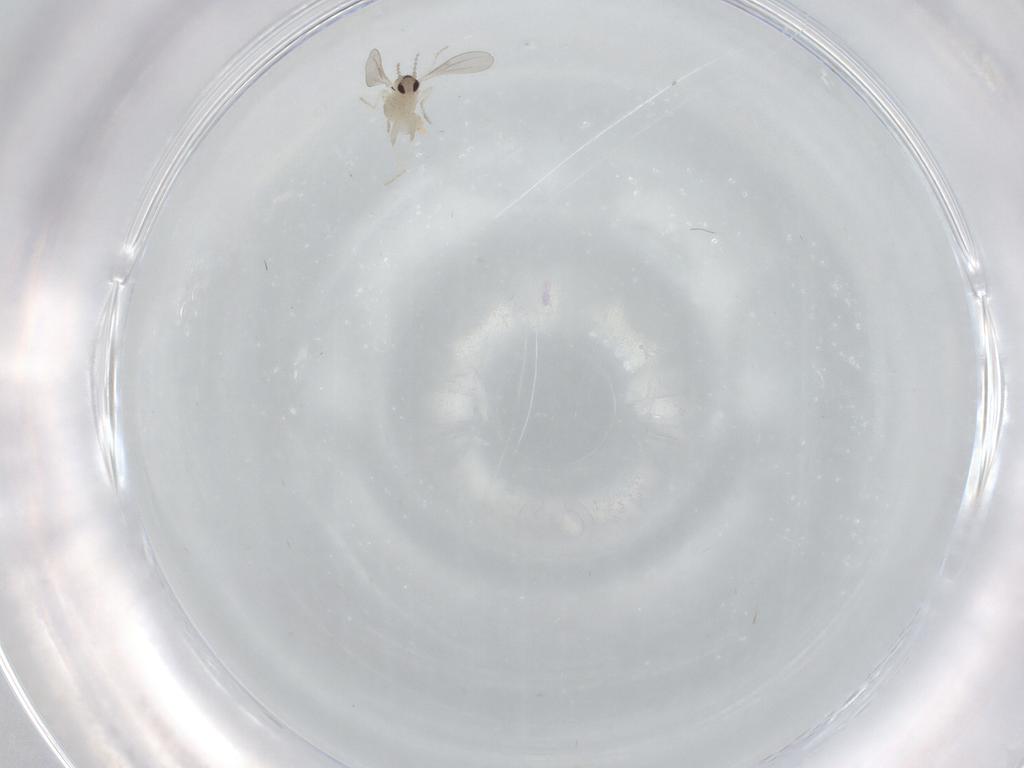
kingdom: Animalia
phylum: Arthropoda
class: Insecta
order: Diptera
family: Cecidomyiidae
